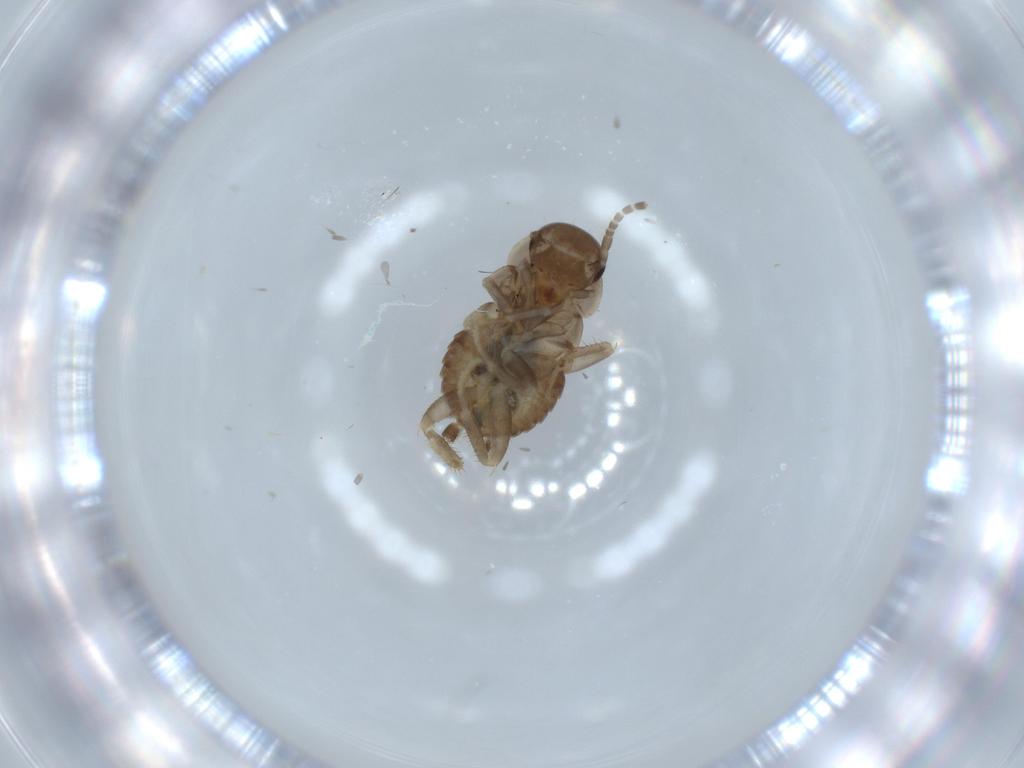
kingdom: Animalia
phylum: Arthropoda
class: Insecta
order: Blattodea
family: Ectobiidae
